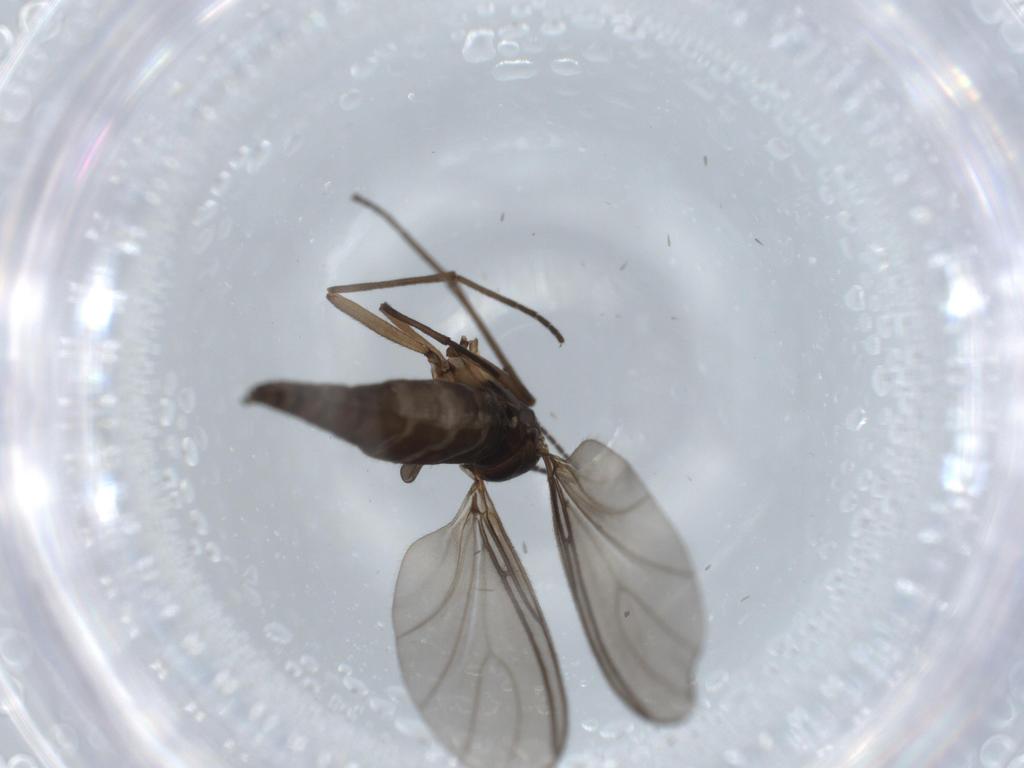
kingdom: Animalia
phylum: Arthropoda
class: Insecta
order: Diptera
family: Sciaridae
